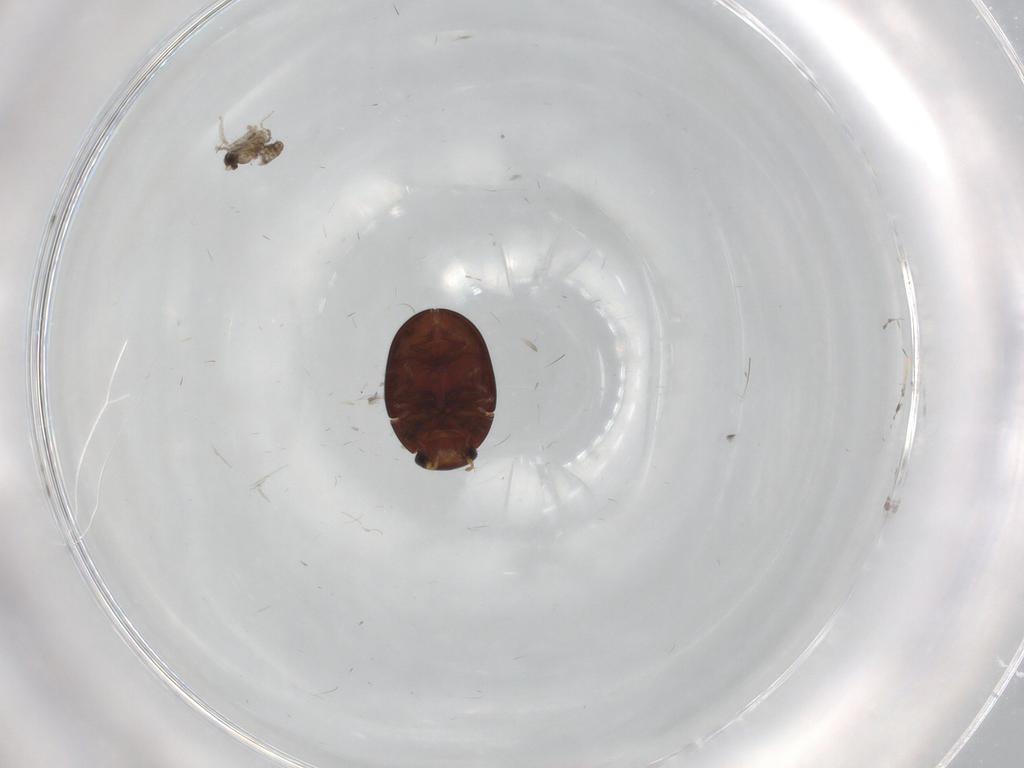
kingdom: Animalia
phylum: Arthropoda
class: Insecta
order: Coleoptera
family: Hydrophilidae
